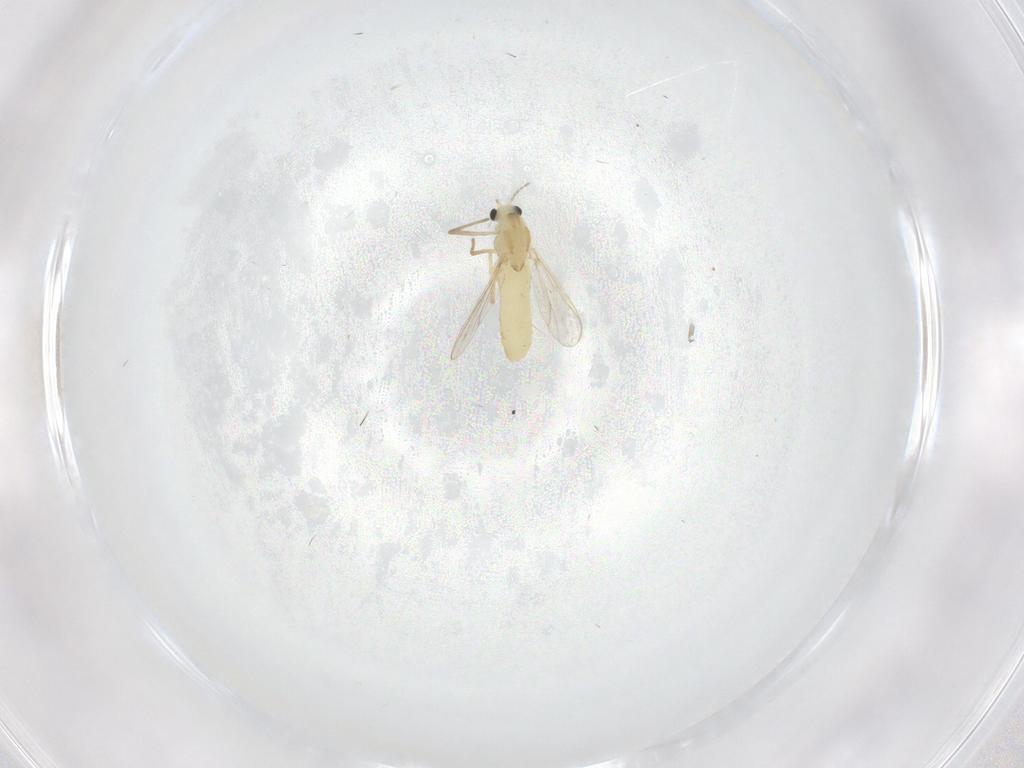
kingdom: Animalia
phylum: Arthropoda
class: Insecta
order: Diptera
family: Chironomidae
